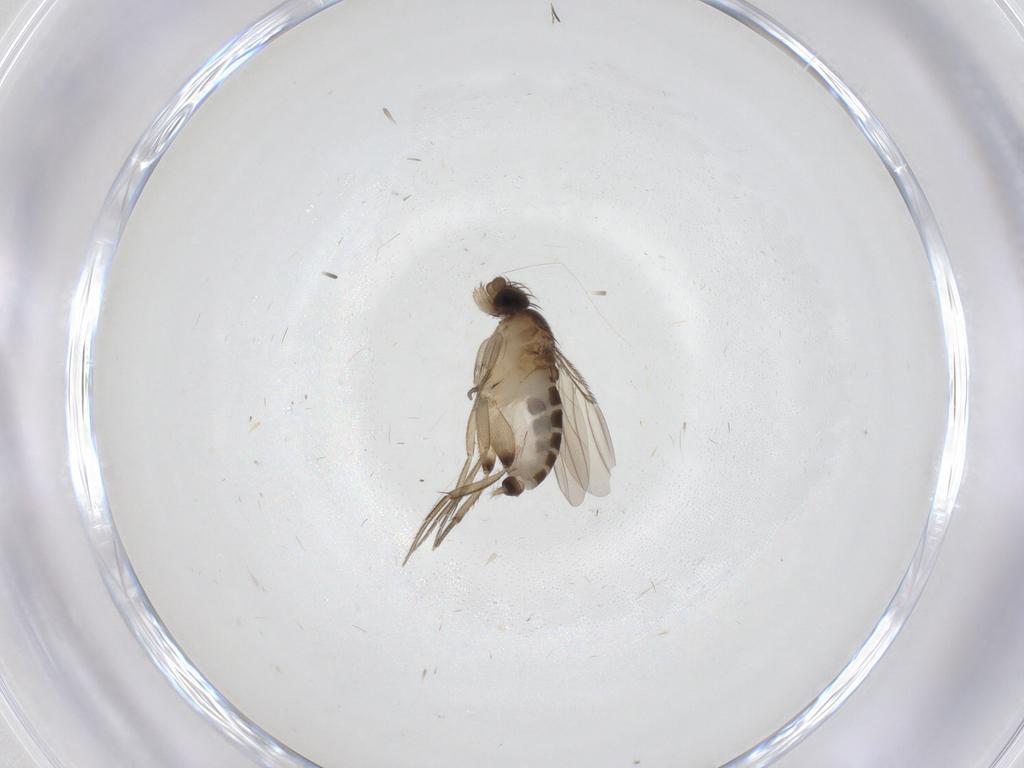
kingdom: Animalia
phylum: Arthropoda
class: Insecta
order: Diptera
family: Phoridae
